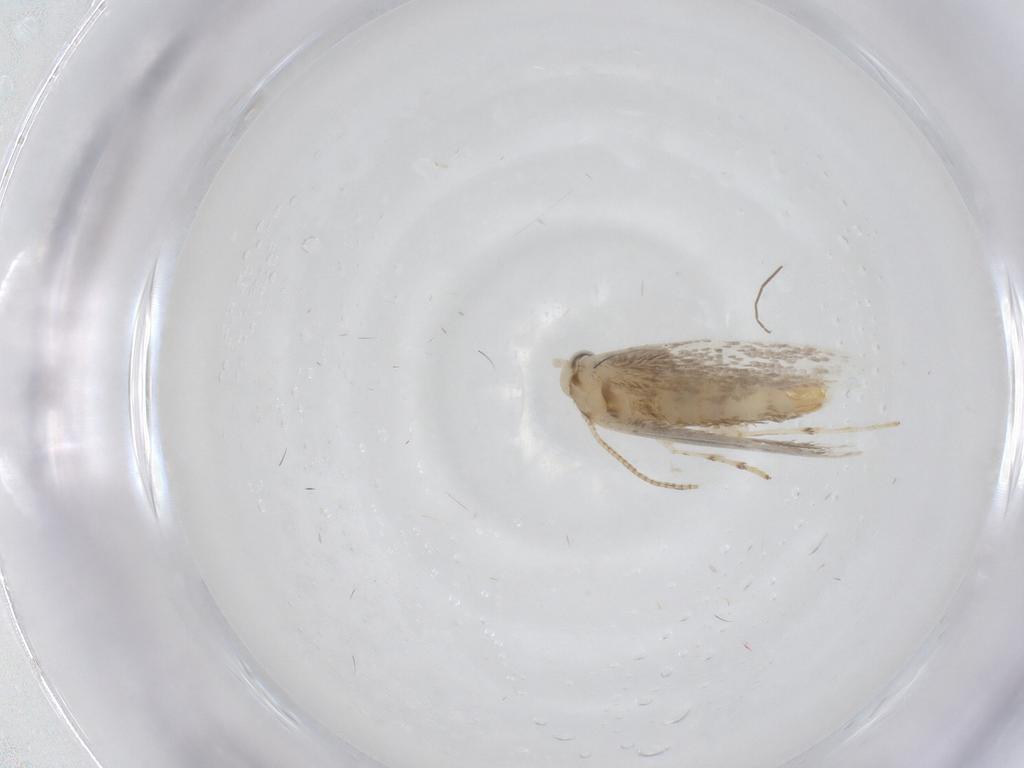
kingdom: Animalia
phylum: Arthropoda
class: Insecta
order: Lepidoptera
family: Gracillariidae
